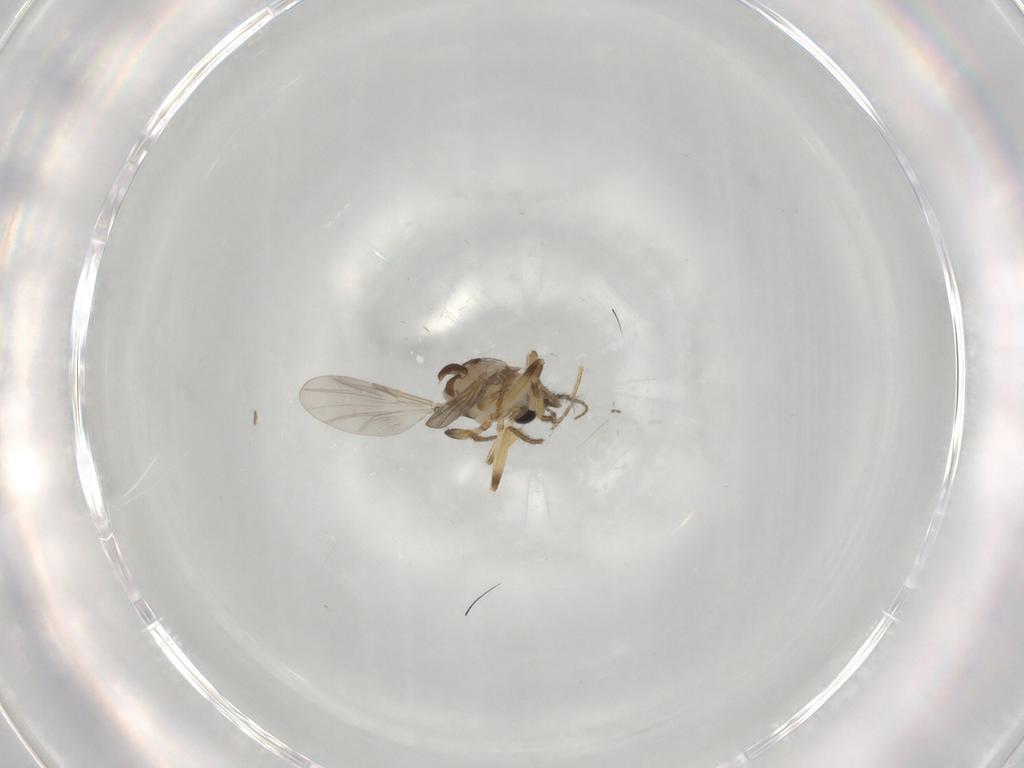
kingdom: Animalia
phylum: Arthropoda
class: Insecta
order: Diptera
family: Ceratopogonidae
